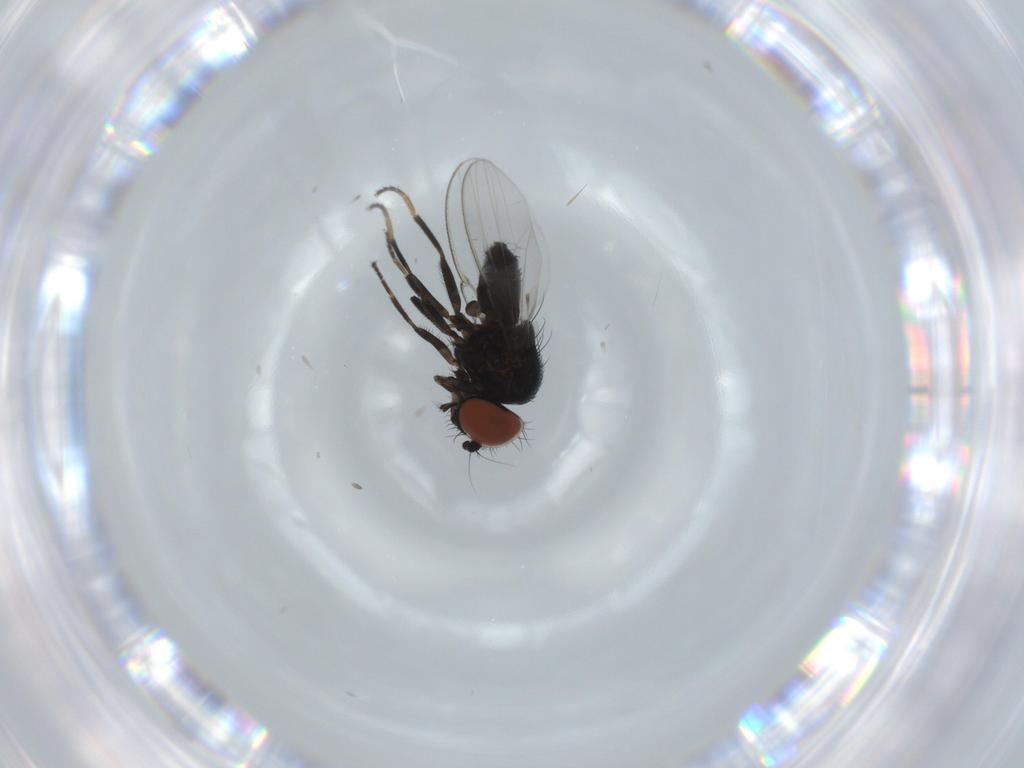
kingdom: Animalia
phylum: Arthropoda
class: Insecta
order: Diptera
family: Milichiidae
